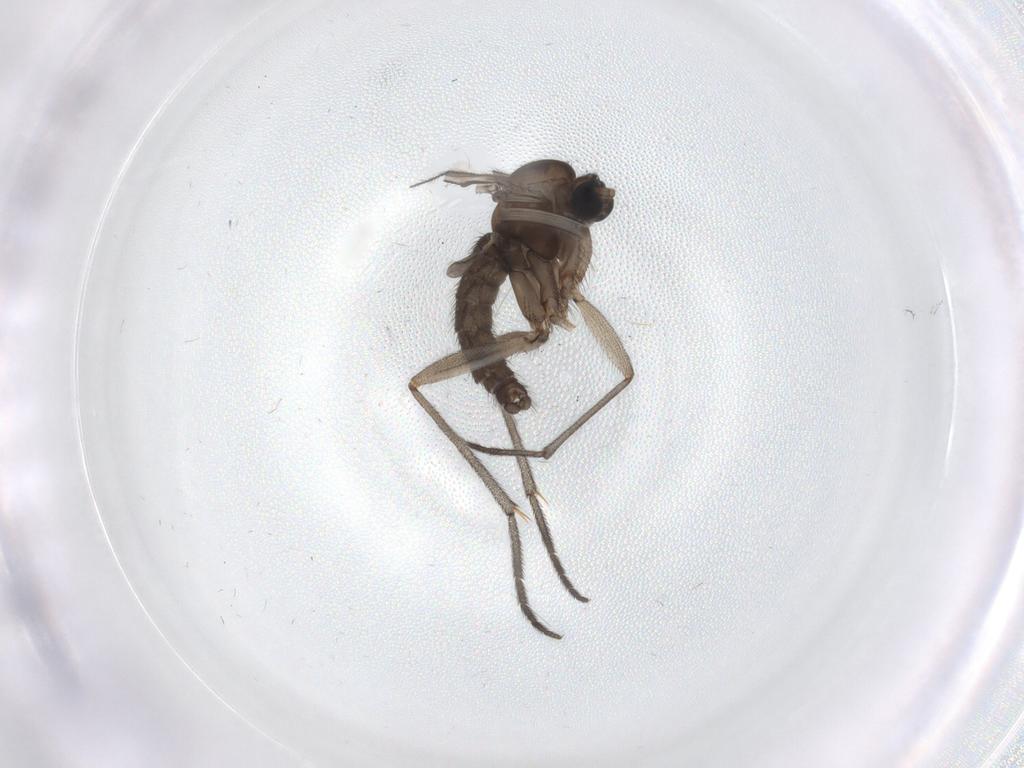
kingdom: Animalia
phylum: Arthropoda
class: Insecta
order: Diptera
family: Sciaridae
